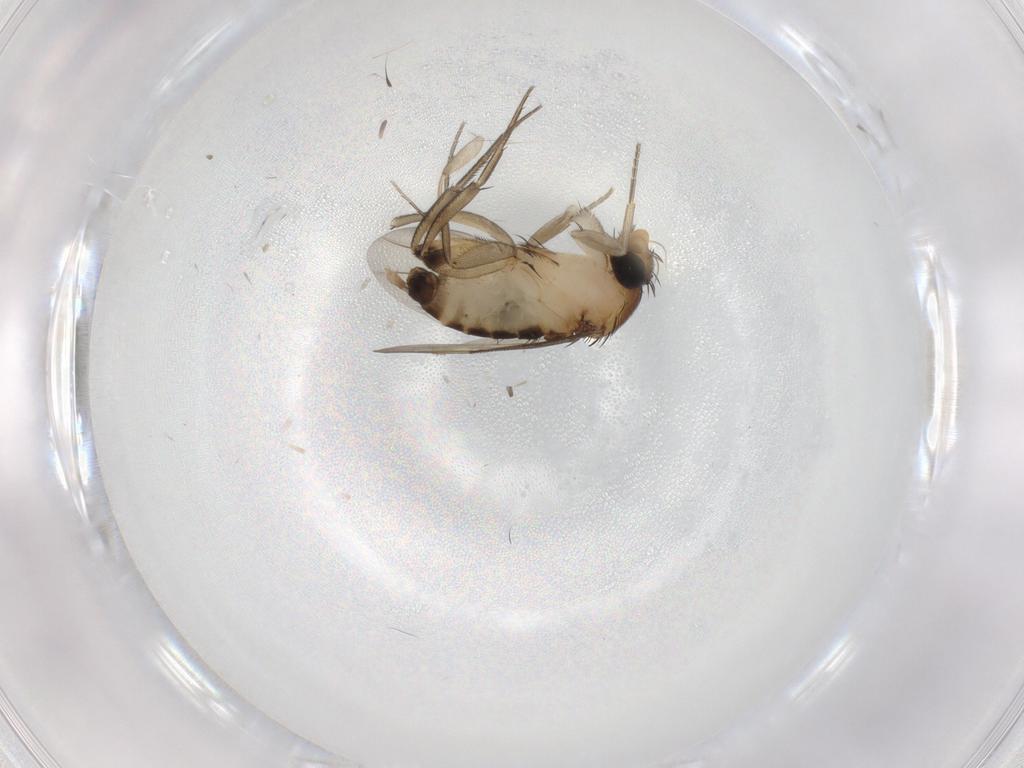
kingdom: Animalia
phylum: Arthropoda
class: Insecta
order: Diptera
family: Phoridae
